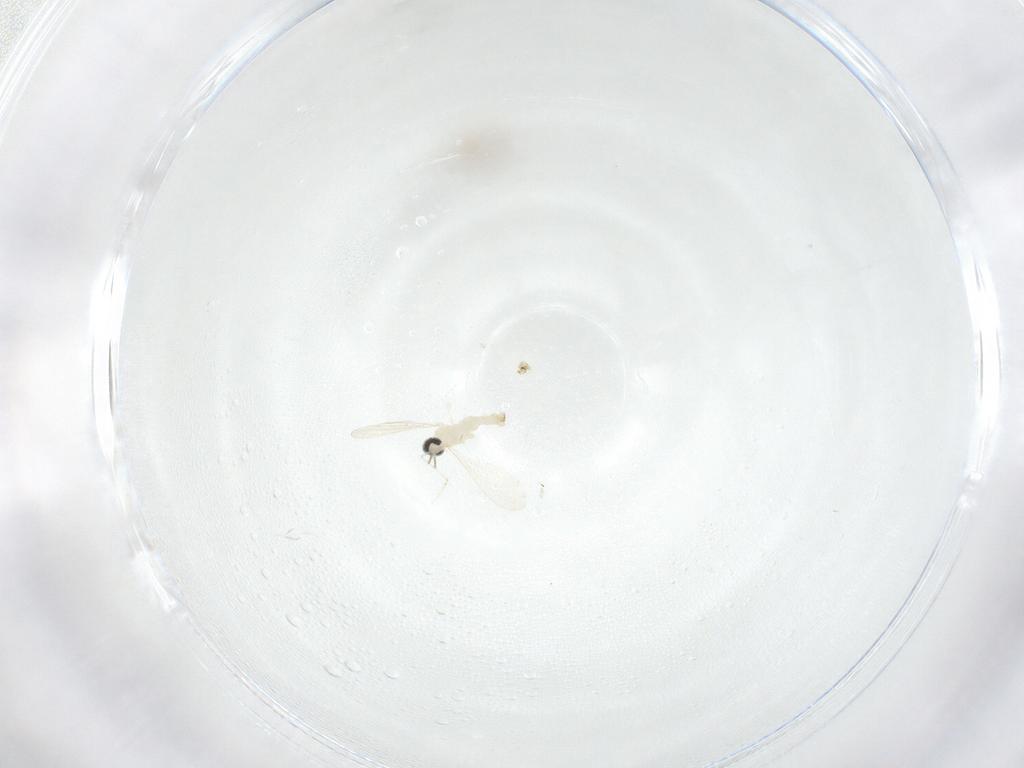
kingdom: Animalia
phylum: Arthropoda
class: Insecta
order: Diptera
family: Cecidomyiidae
